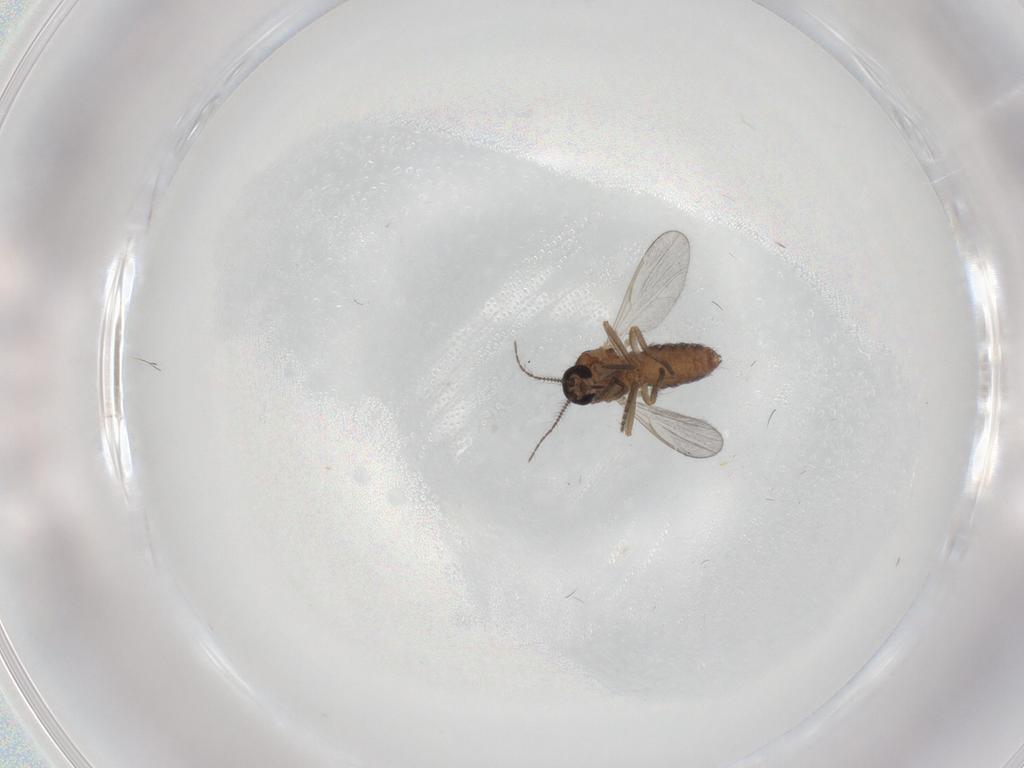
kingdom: Animalia
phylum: Arthropoda
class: Insecta
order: Diptera
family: Ceratopogonidae
